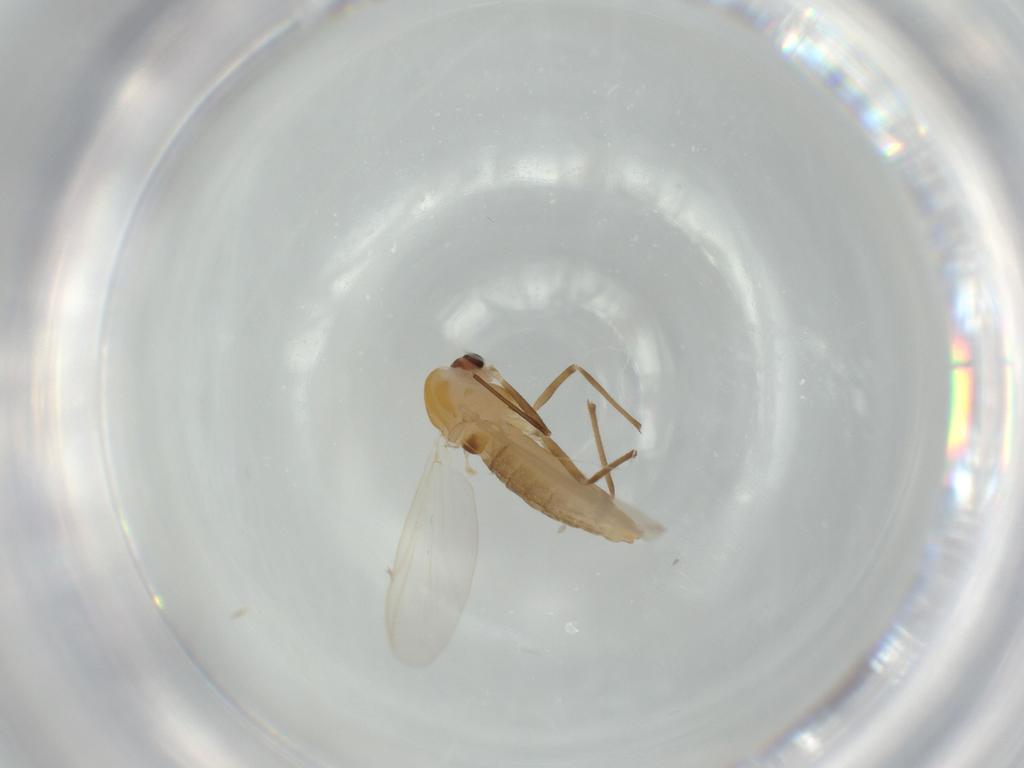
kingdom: Animalia
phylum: Arthropoda
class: Insecta
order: Diptera
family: Chironomidae
